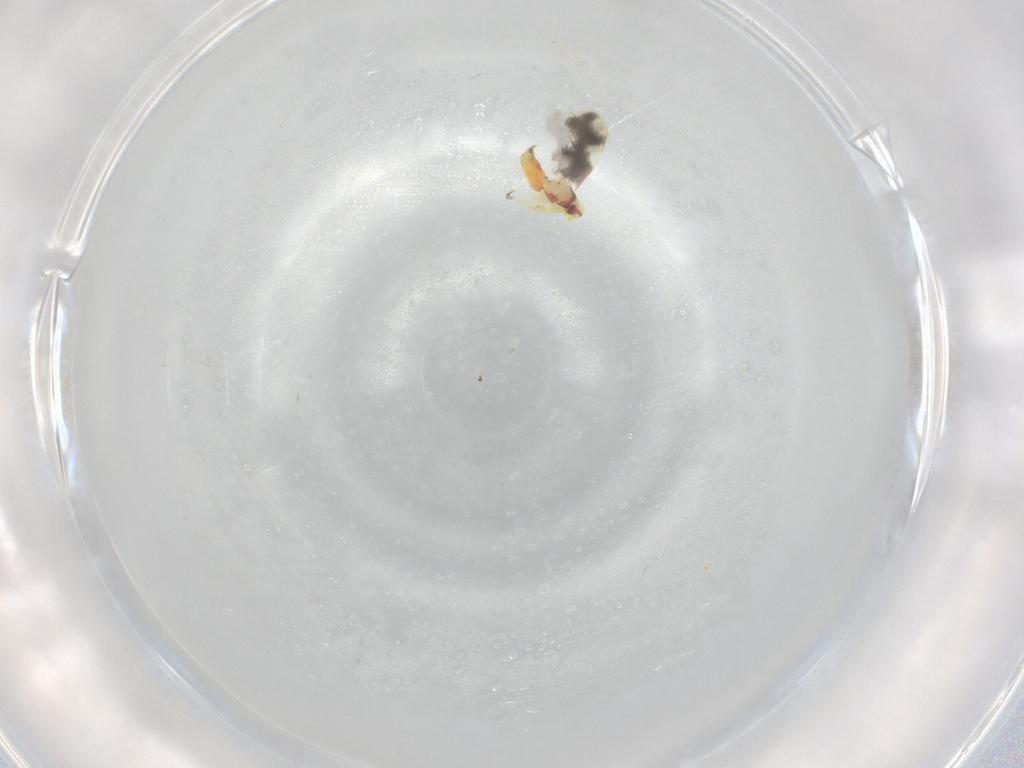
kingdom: Animalia
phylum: Arthropoda
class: Insecta
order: Hemiptera
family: Aleyrodidae
